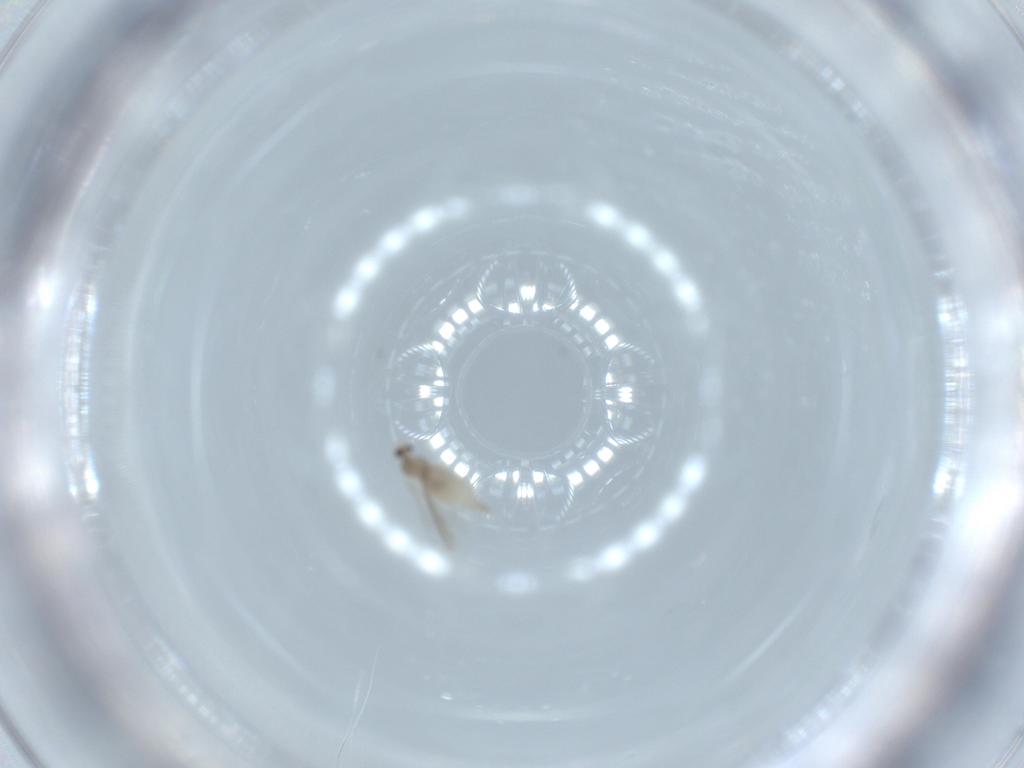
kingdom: Animalia
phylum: Arthropoda
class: Insecta
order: Diptera
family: Cecidomyiidae
